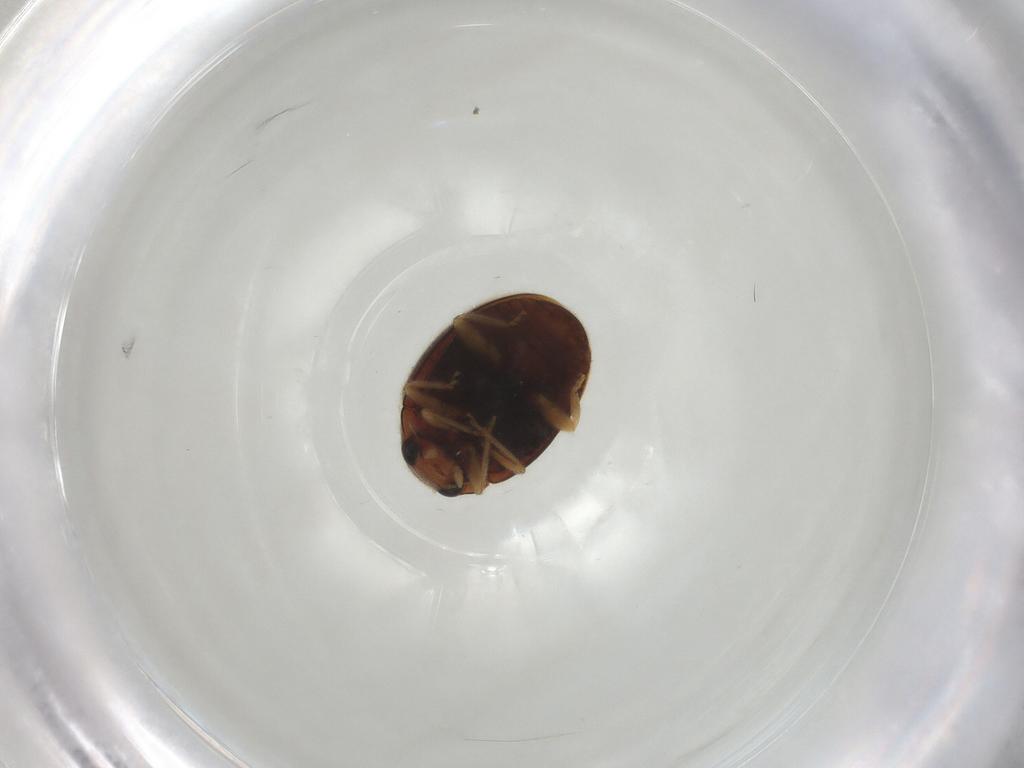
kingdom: Animalia
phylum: Arthropoda
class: Insecta
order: Coleoptera
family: Coccinellidae
